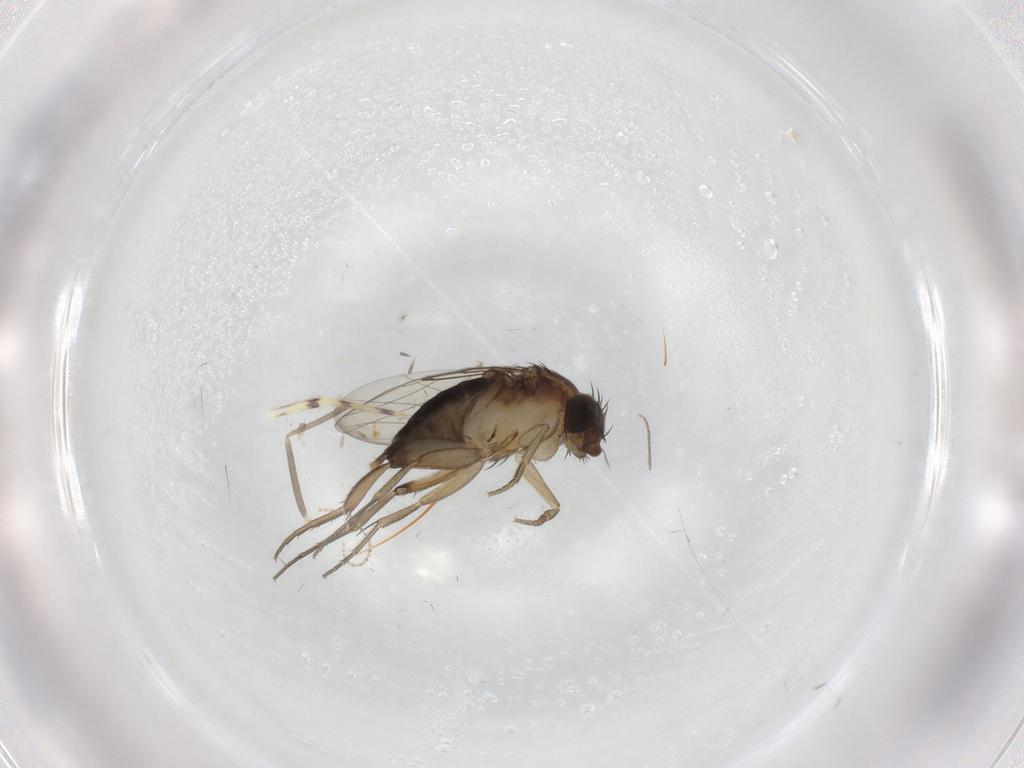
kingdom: Animalia
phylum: Arthropoda
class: Insecta
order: Diptera
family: Phoridae
